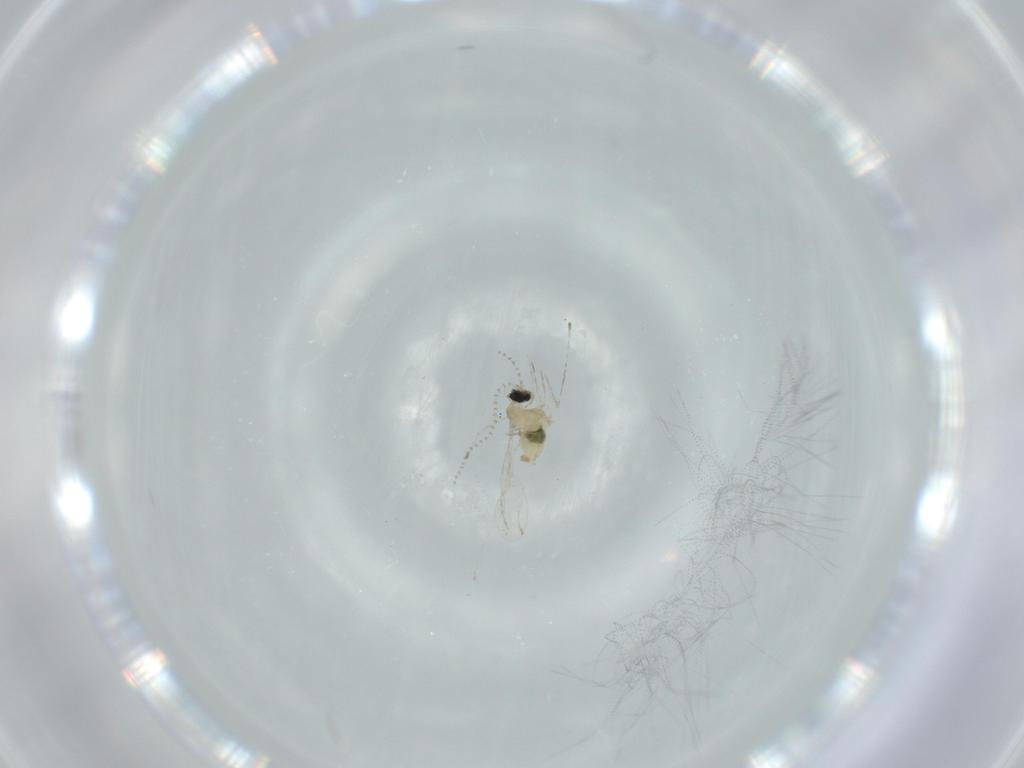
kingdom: Animalia
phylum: Arthropoda
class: Insecta
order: Diptera
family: Cecidomyiidae
